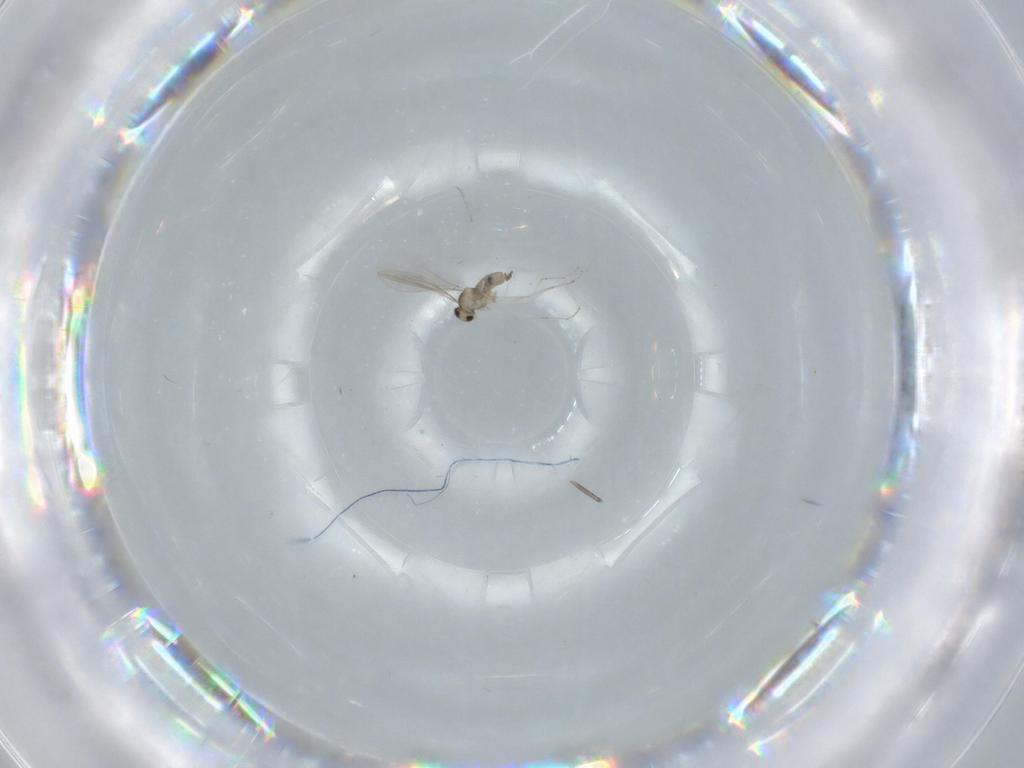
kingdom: Animalia
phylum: Arthropoda
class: Insecta
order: Diptera
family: Cecidomyiidae
